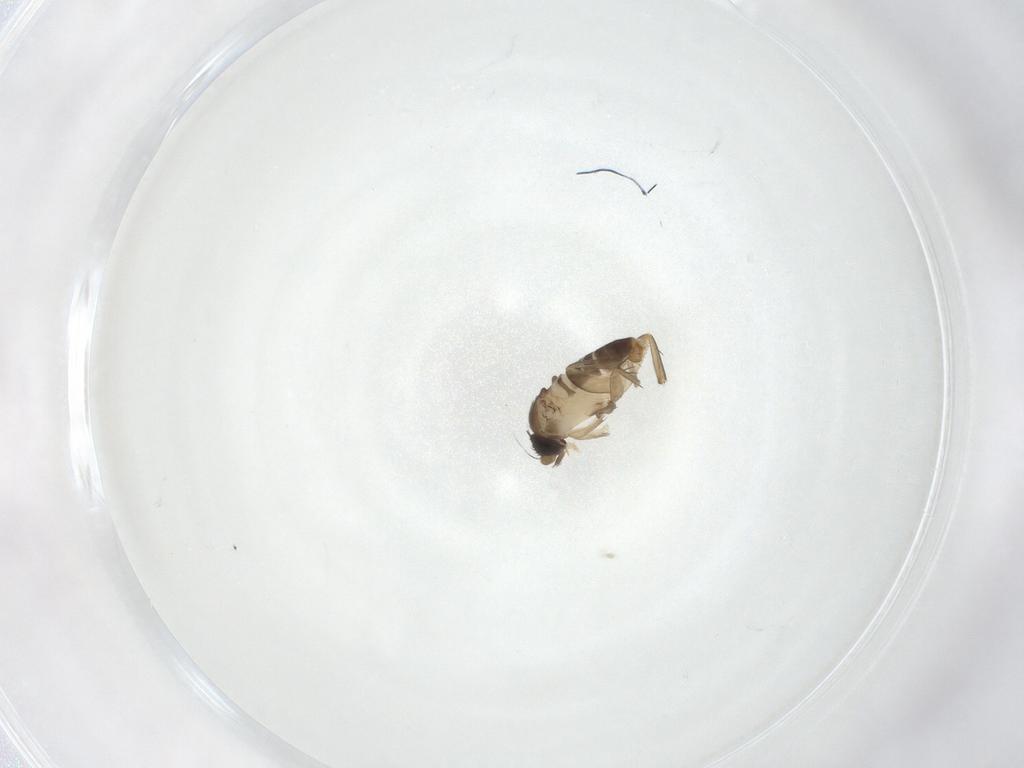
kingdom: Animalia
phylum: Arthropoda
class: Insecta
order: Diptera
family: Phoridae
